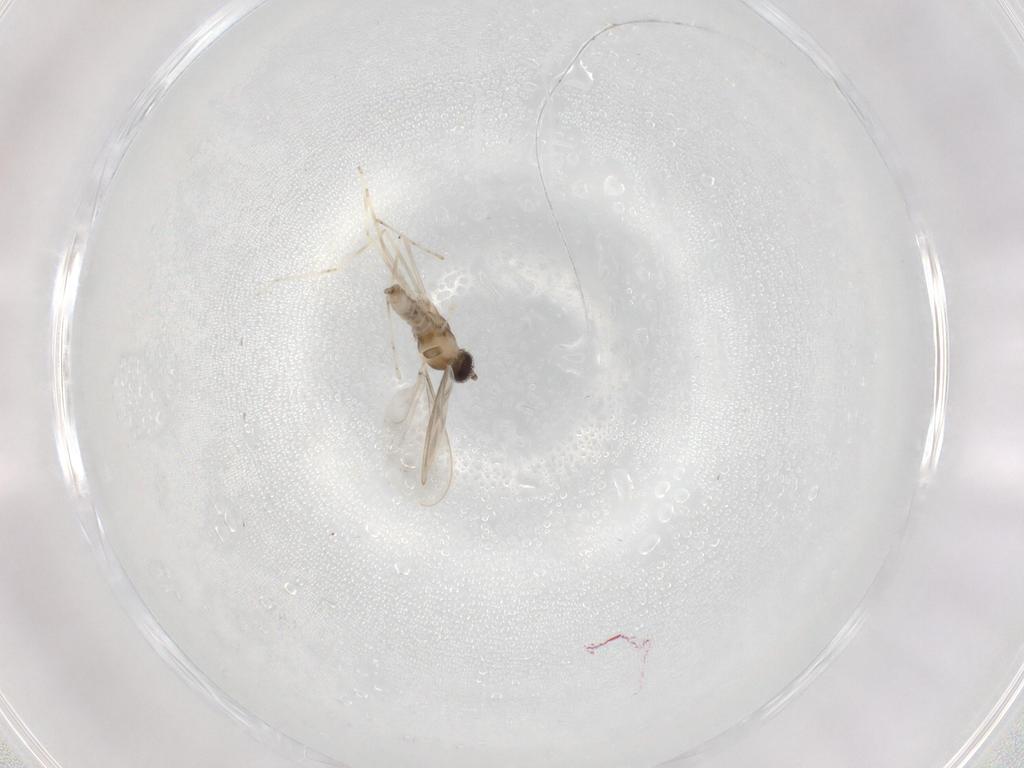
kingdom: Animalia
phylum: Arthropoda
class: Insecta
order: Diptera
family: Cecidomyiidae
